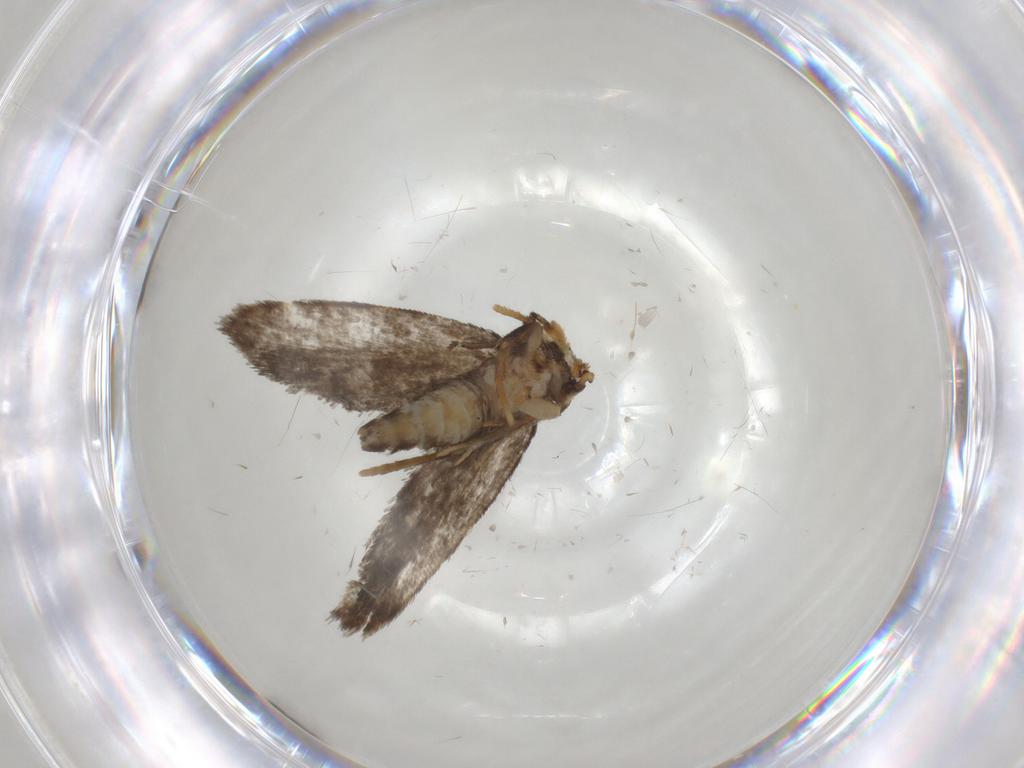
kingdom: Animalia
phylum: Arthropoda
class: Insecta
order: Lepidoptera
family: Psychidae
